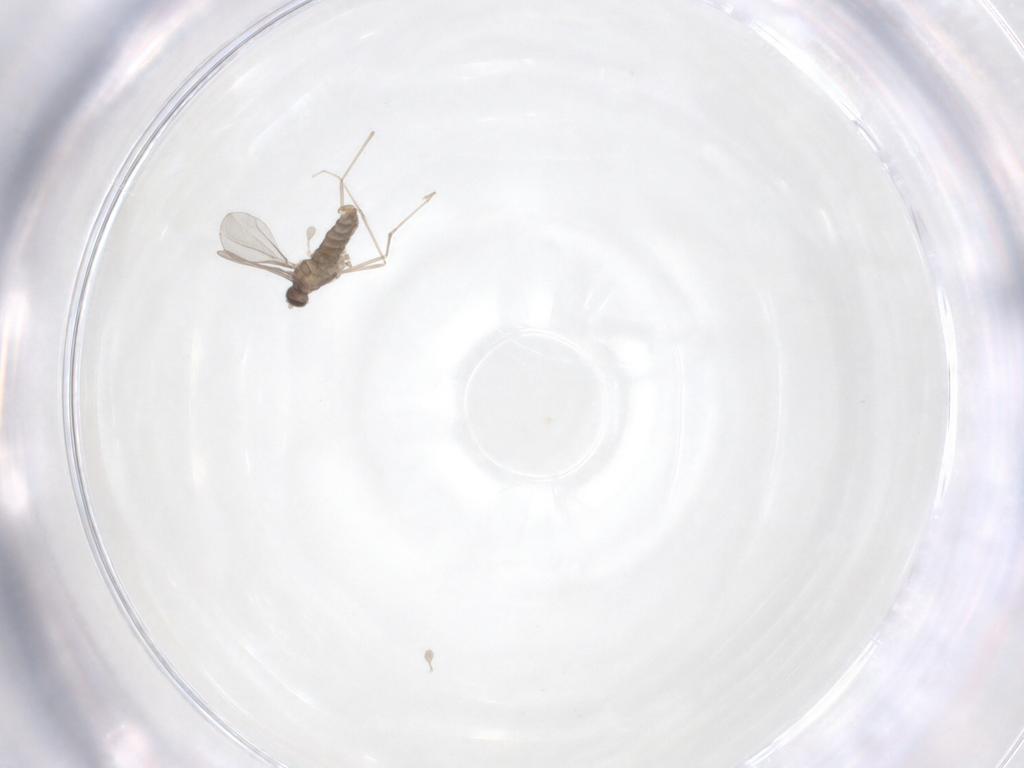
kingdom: Animalia
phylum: Arthropoda
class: Insecta
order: Diptera
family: Cecidomyiidae
